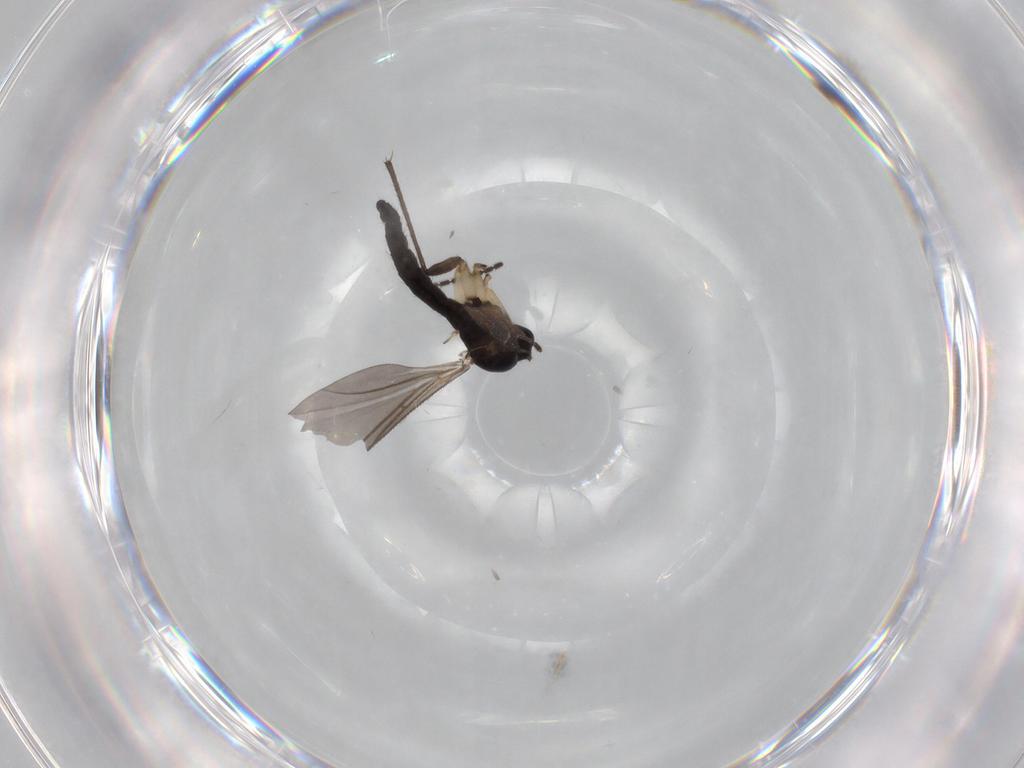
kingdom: Animalia
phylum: Arthropoda
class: Insecta
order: Diptera
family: Sciaridae
